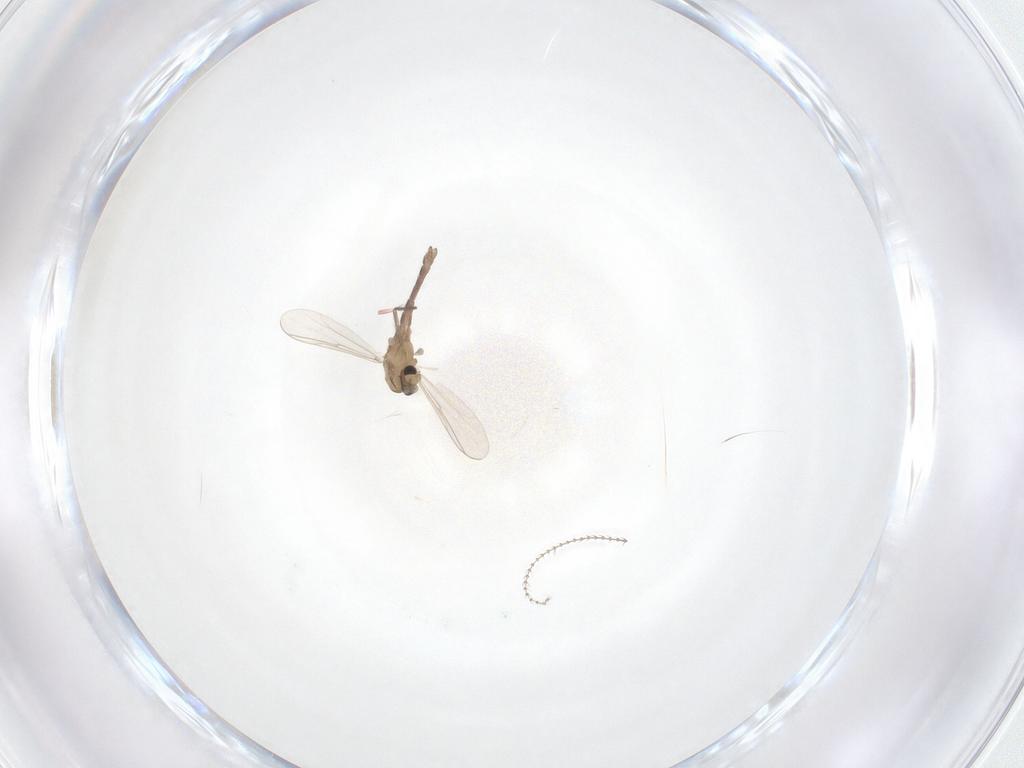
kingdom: Animalia
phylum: Arthropoda
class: Insecta
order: Diptera
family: Chironomidae
